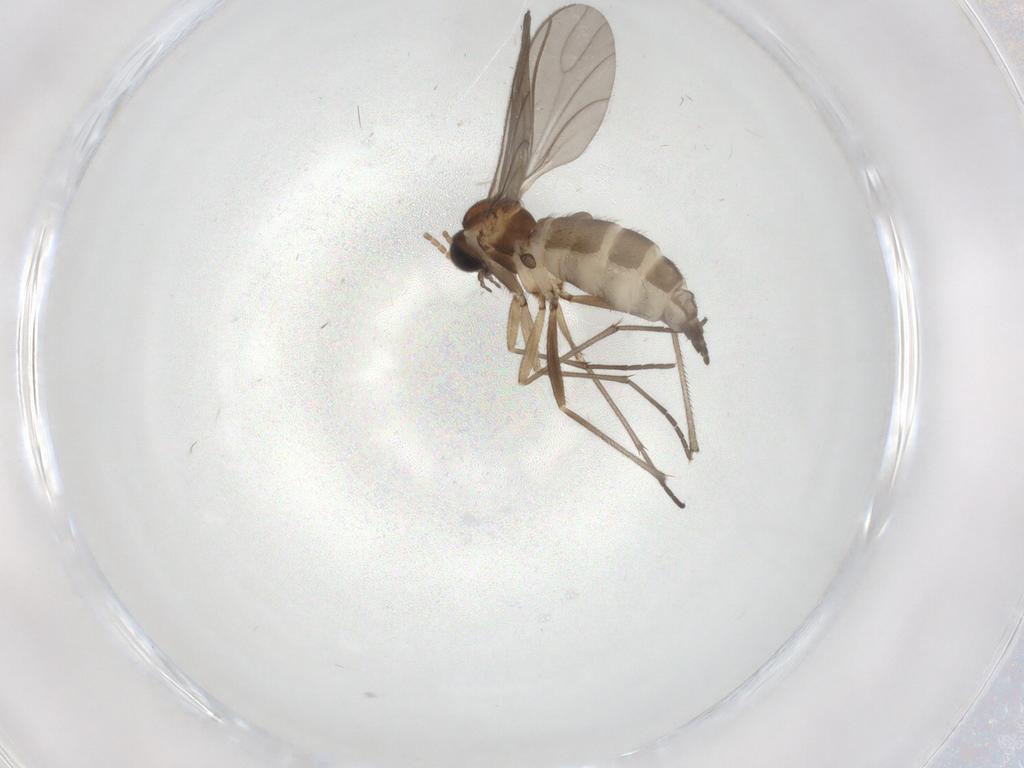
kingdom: Animalia
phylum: Arthropoda
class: Insecta
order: Diptera
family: Sciaridae
